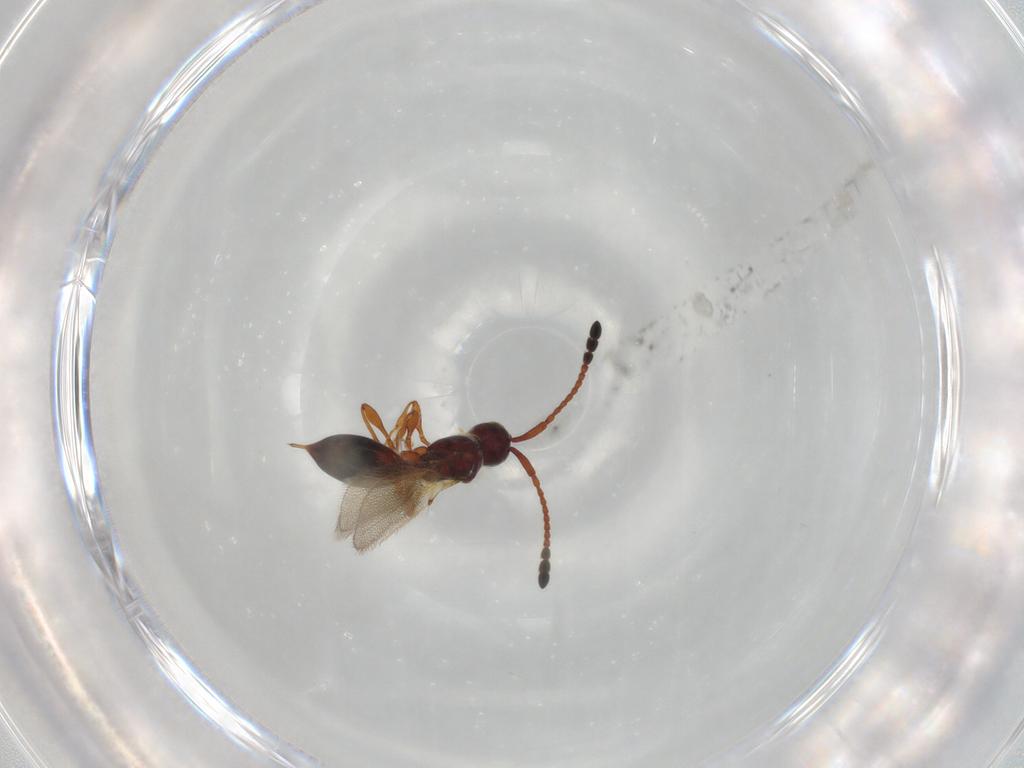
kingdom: Animalia
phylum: Arthropoda
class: Insecta
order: Hymenoptera
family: Diapriidae
